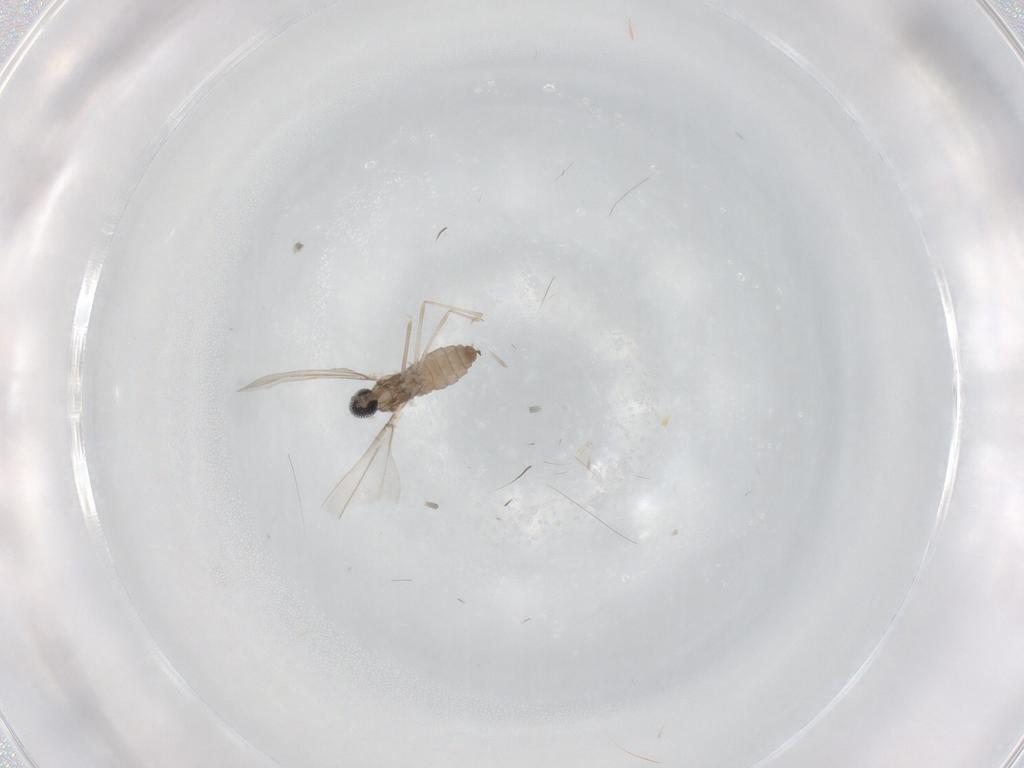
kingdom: Animalia
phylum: Arthropoda
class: Insecta
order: Diptera
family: Cecidomyiidae
